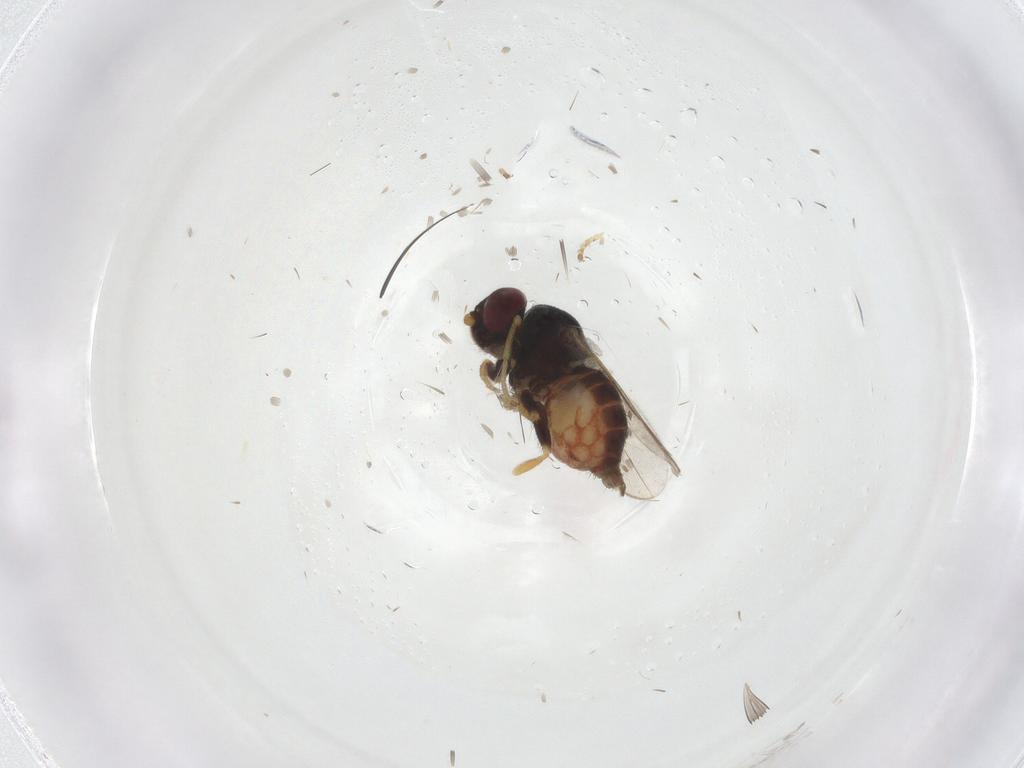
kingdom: Animalia
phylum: Arthropoda
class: Insecta
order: Diptera
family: Chloropidae
